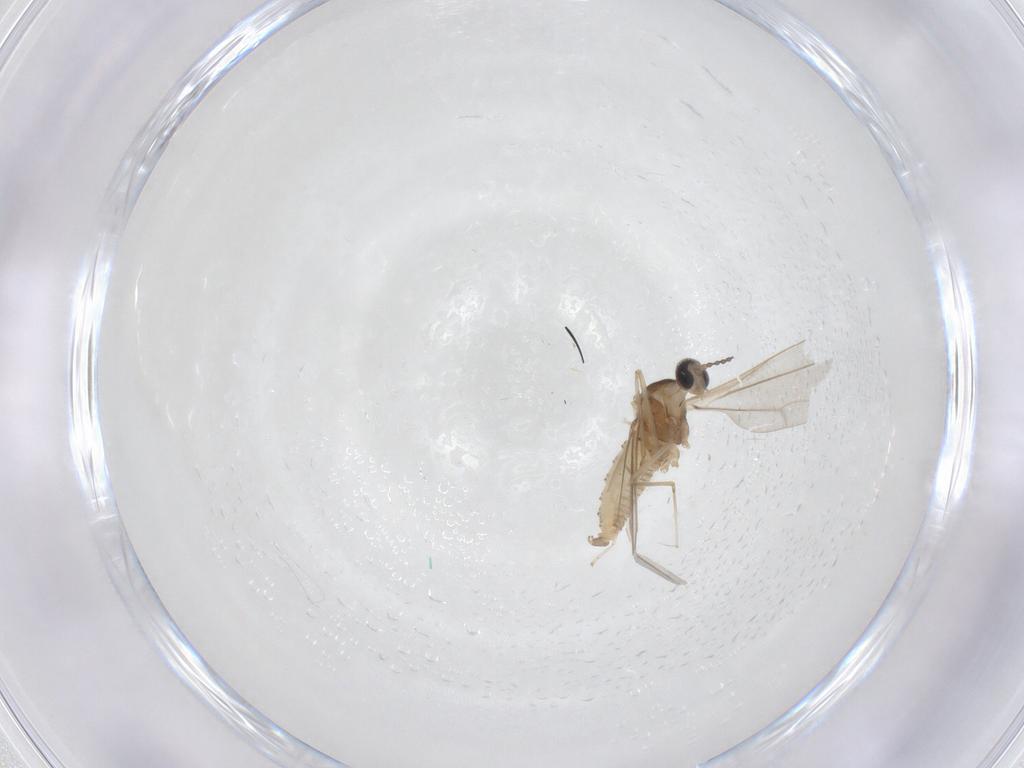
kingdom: Animalia
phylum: Arthropoda
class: Insecta
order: Diptera
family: Cecidomyiidae
